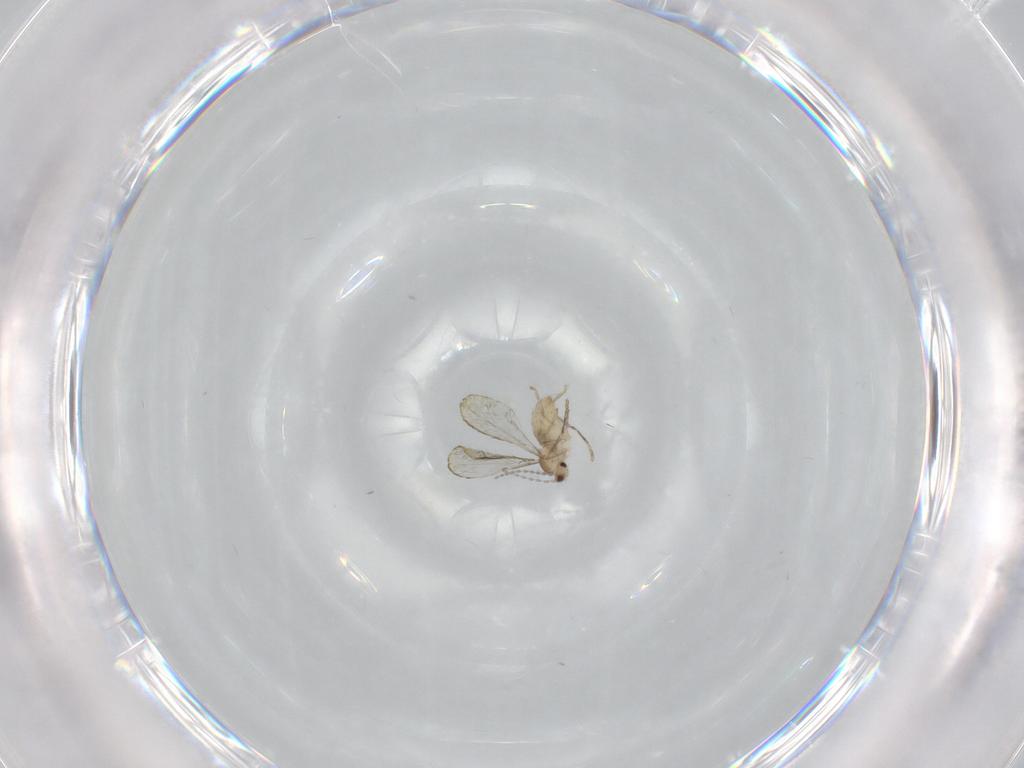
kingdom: Animalia
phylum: Arthropoda
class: Insecta
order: Diptera
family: Cecidomyiidae
